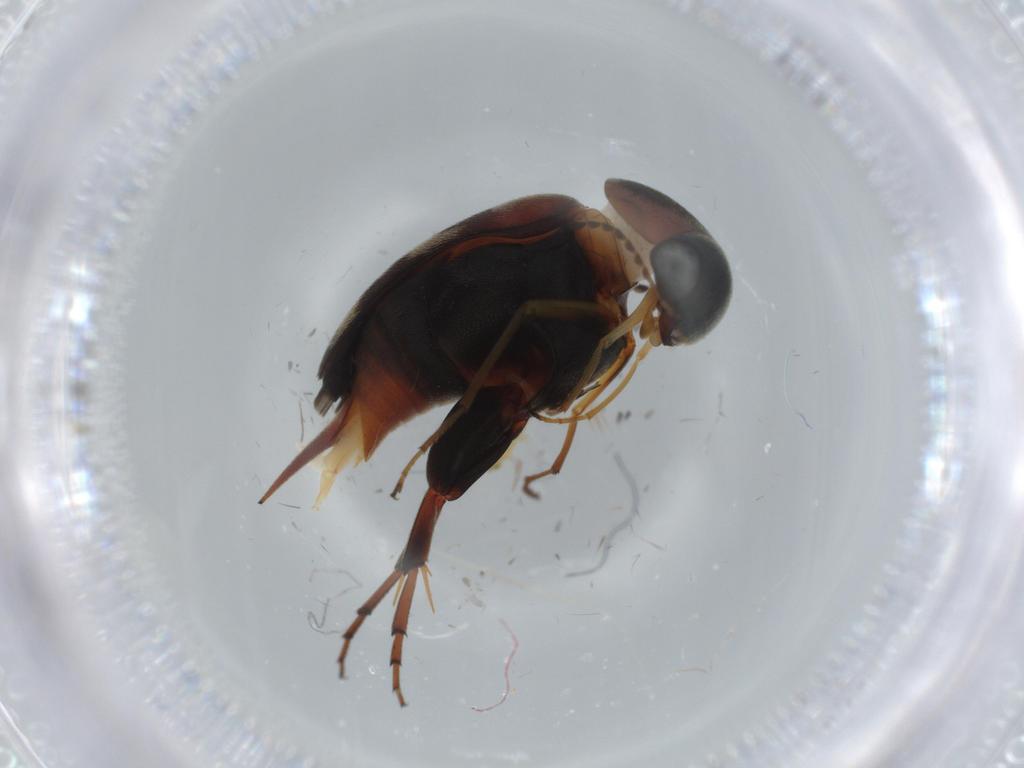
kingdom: Animalia
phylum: Arthropoda
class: Insecta
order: Coleoptera
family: Mordellidae
